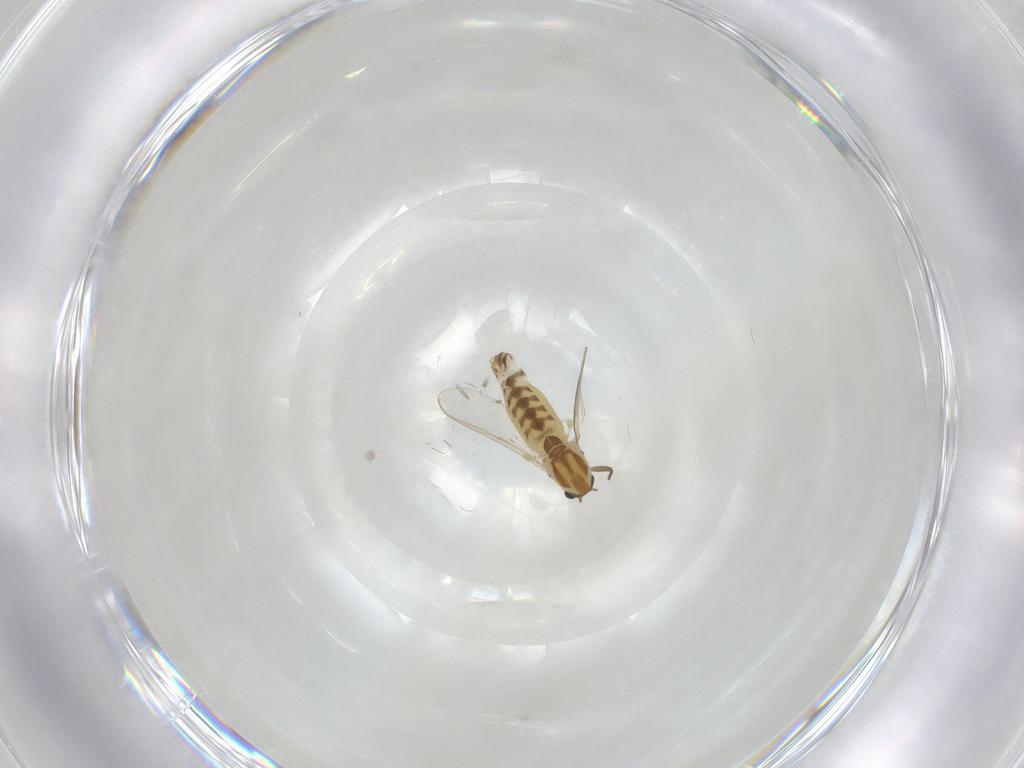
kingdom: Animalia
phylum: Arthropoda
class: Insecta
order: Diptera
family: Chironomidae
